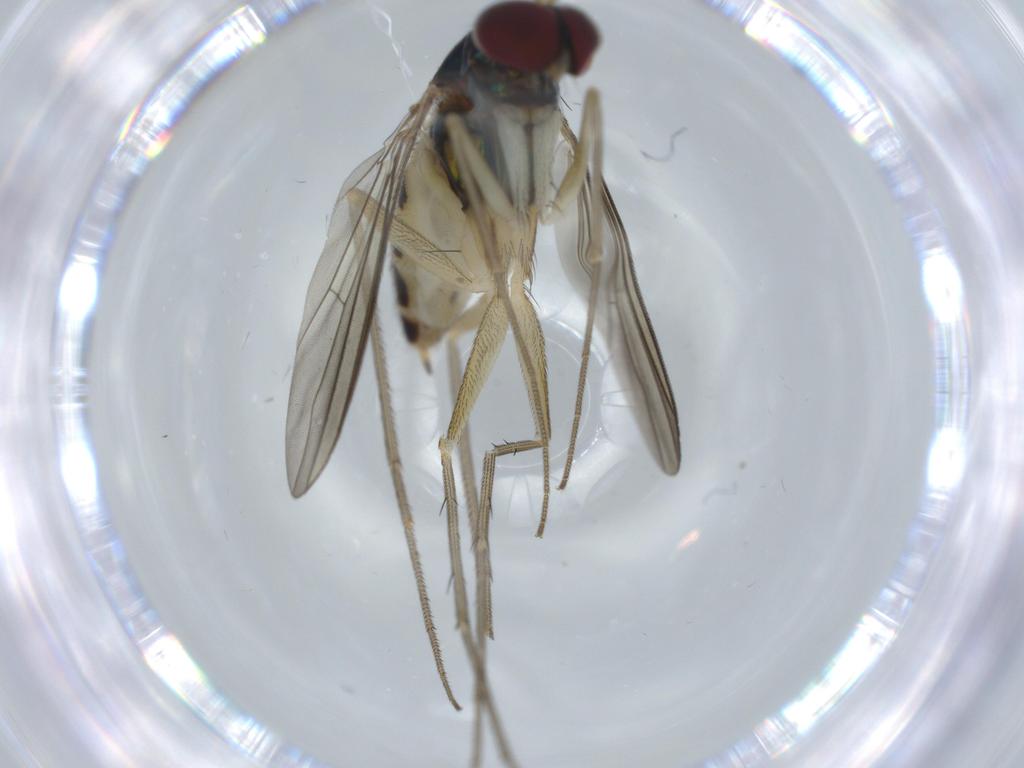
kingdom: Animalia
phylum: Arthropoda
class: Insecta
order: Diptera
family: Dolichopodidae
